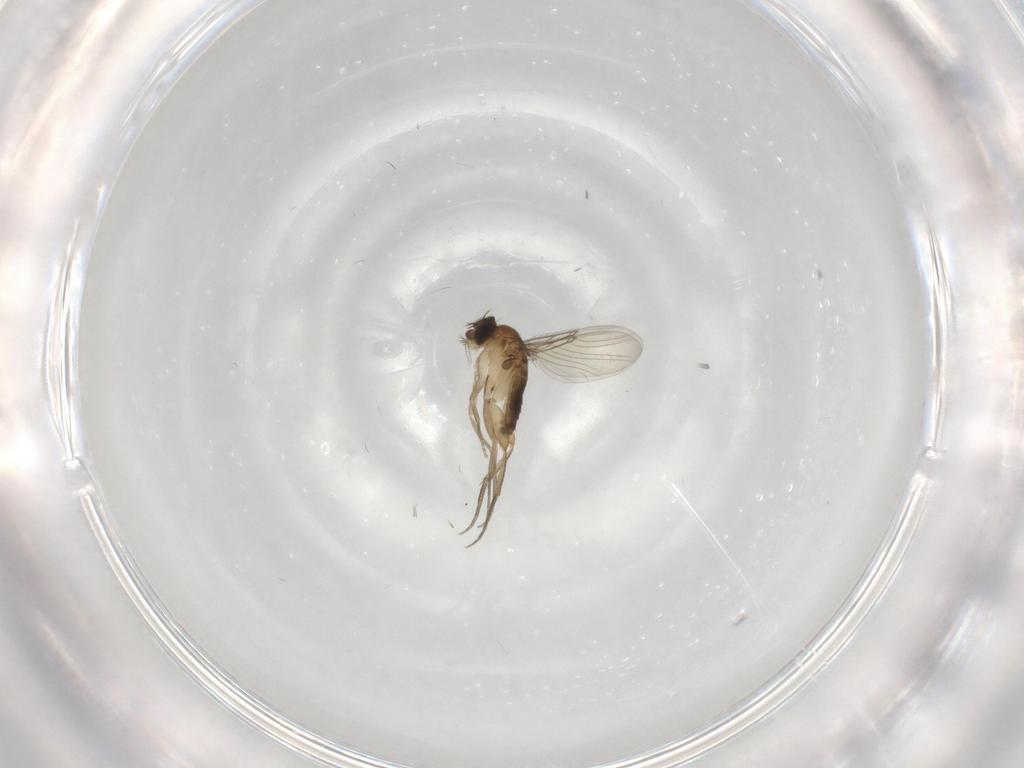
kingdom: Animalia
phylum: Arthropoda
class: Insecta
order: Diptera
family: Phoridae
